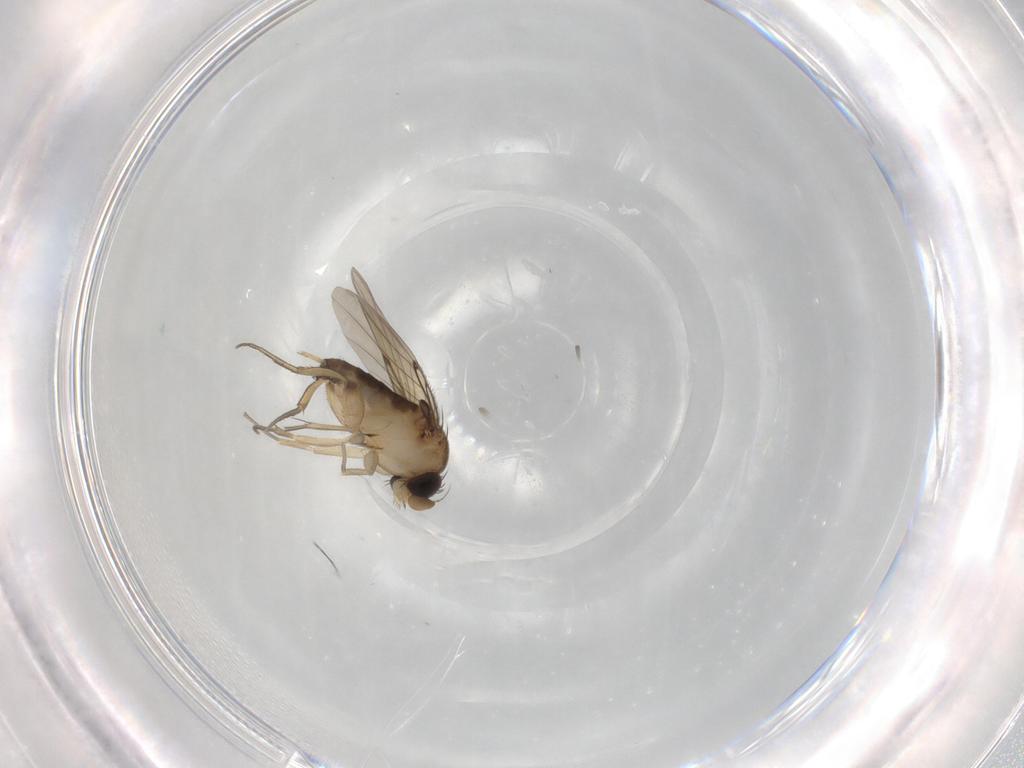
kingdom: Animalia
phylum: Arthropoda
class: Insecta
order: Diptera
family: Phoridae
